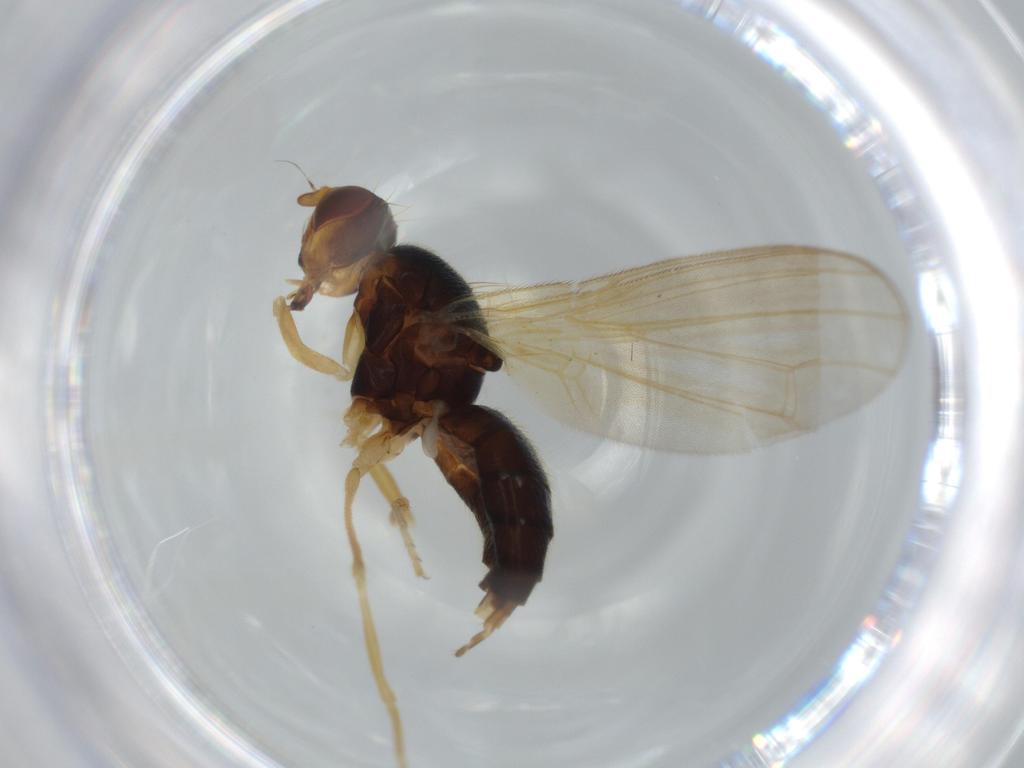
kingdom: Animalia
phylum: Arthropoda
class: Insecta
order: Diptera
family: Psilidae
